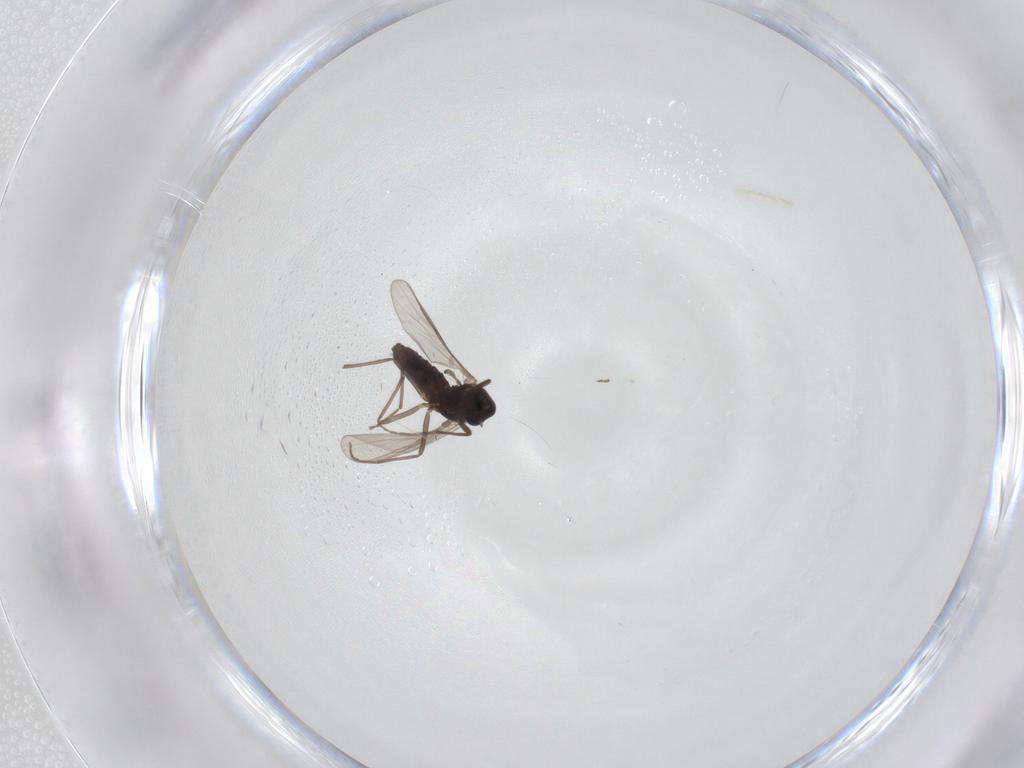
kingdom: Animalia
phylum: Arthropoda
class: Insecta
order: Diptera
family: Chironomidae
